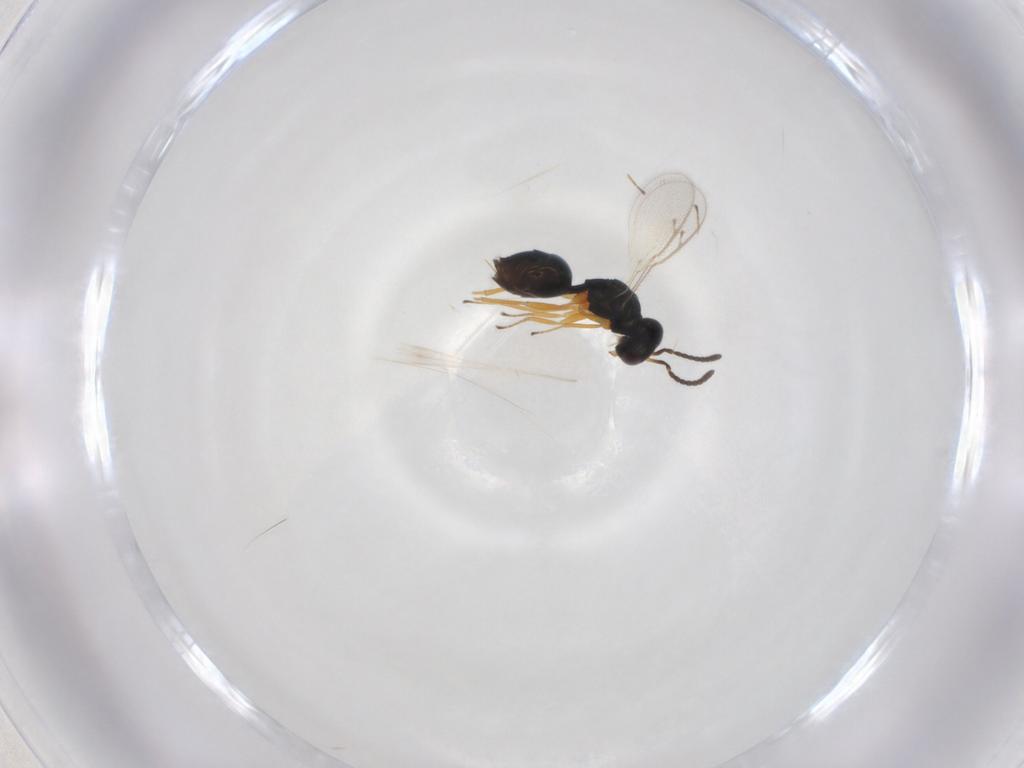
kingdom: Animalia
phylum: Arthropoda
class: Insecta
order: Hymenoptera
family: Pteromalidae
